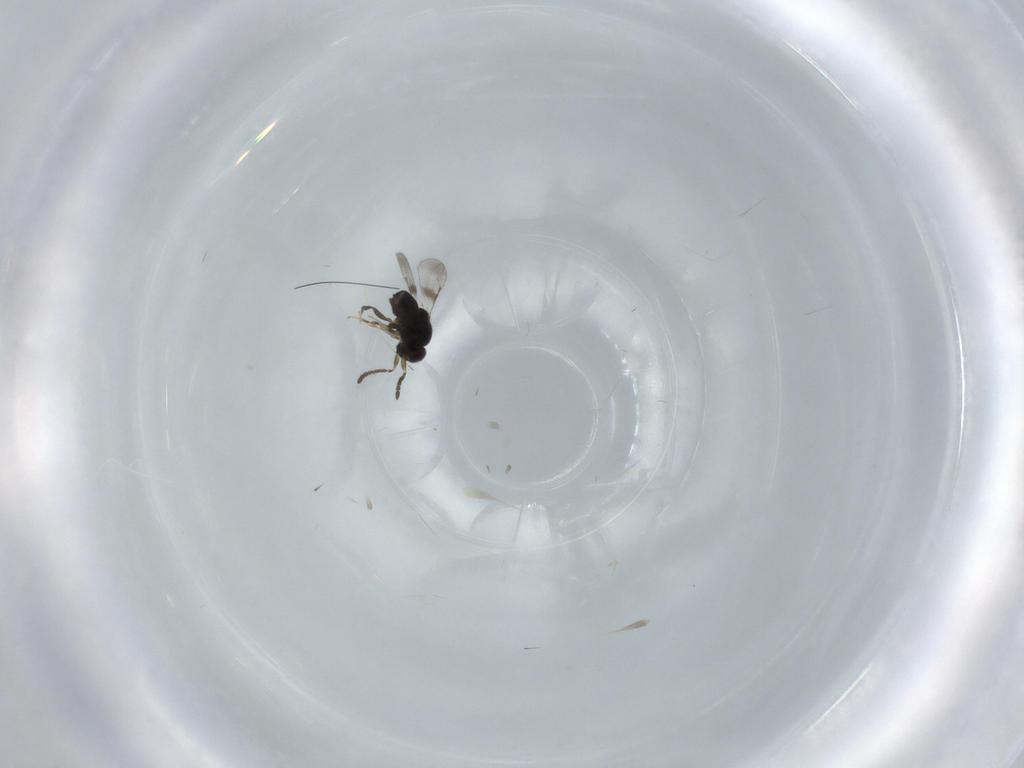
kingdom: Animalia
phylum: Arthropoda
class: Insecta
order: Hymenoptera
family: Ceraphronidae
